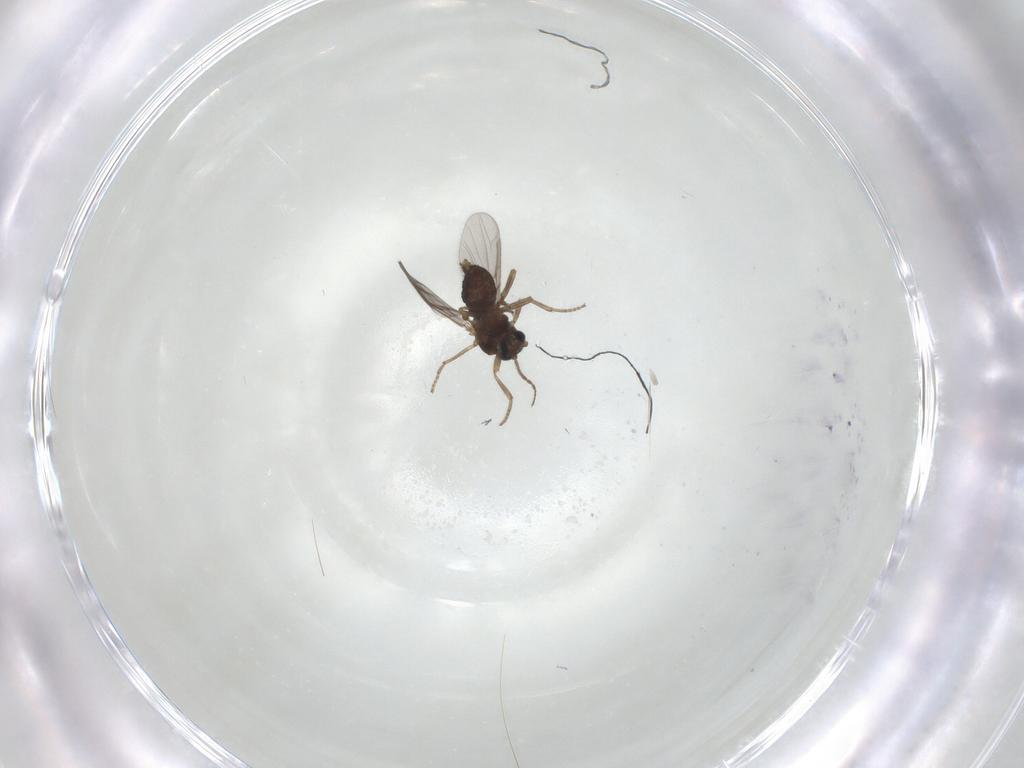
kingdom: Animalia
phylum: Arthropoda
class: Insecta
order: Diptera
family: Ceratopogonidae
